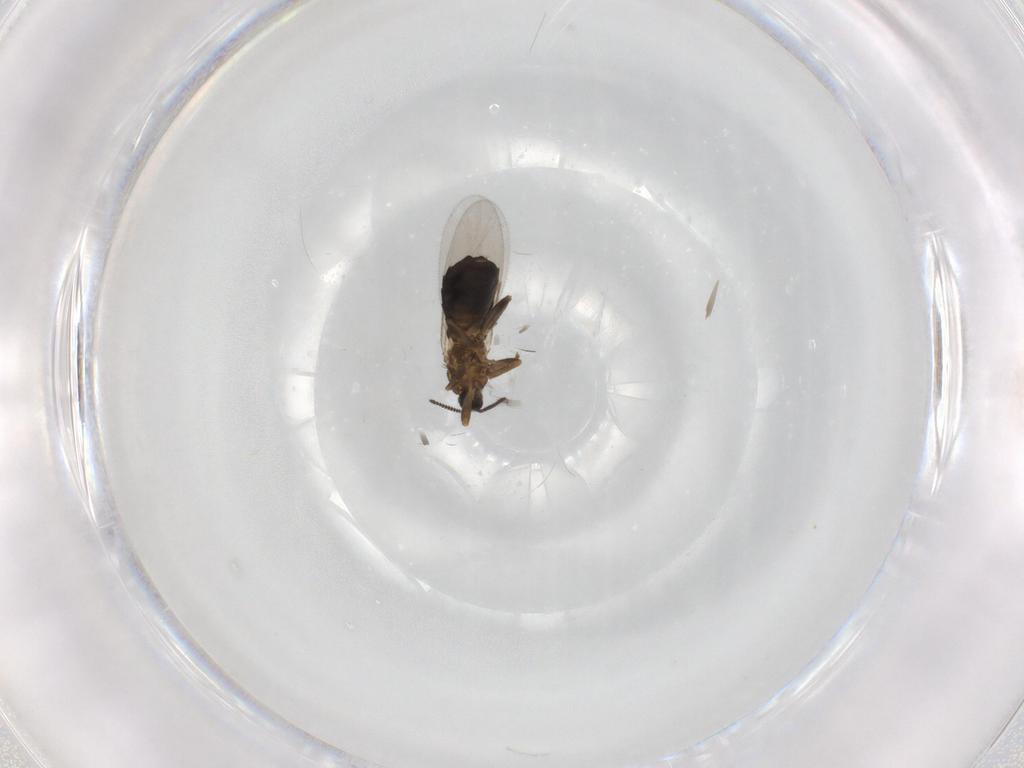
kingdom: Animalia
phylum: Arthropoda
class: Insecta
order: Diptera
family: Scatopsidae
